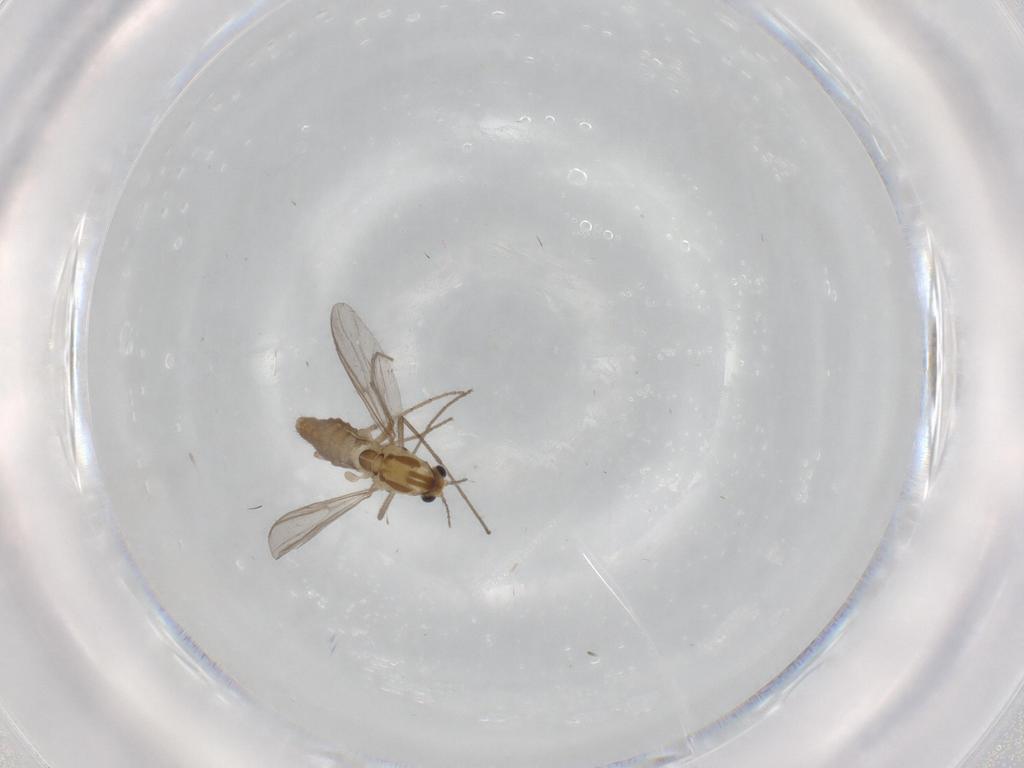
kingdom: Animalia
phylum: Arthropoda
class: Insecta
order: Diptera
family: Chironomidae
